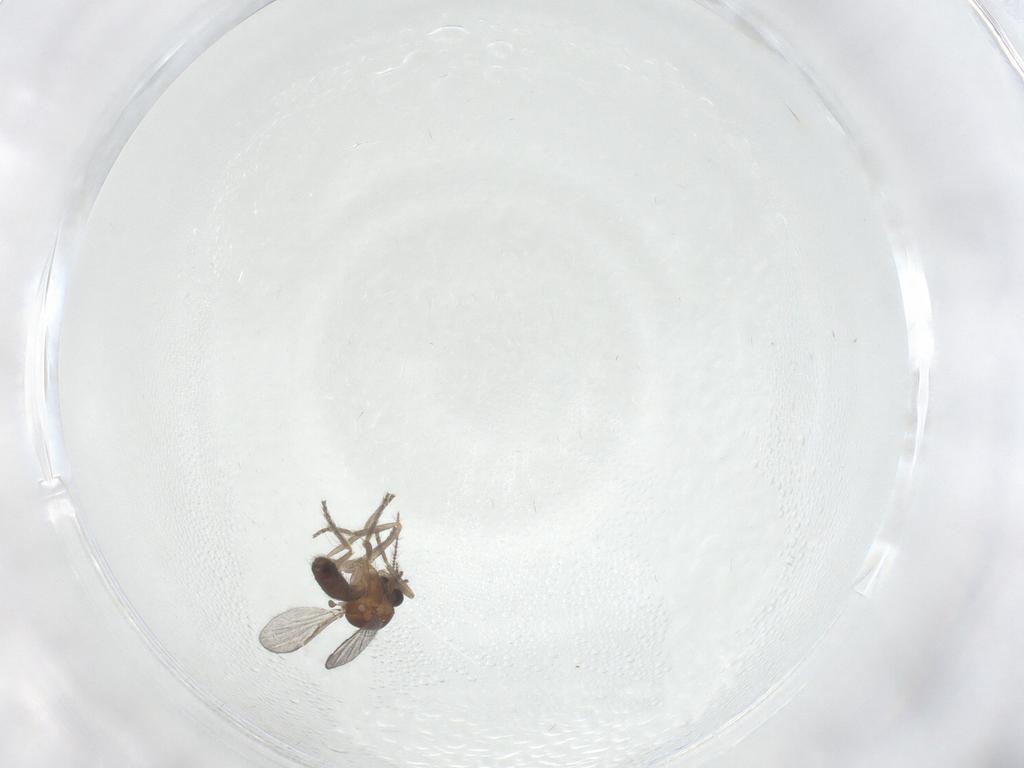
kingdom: Animalia
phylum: Arthropoda
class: Insecta
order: Diptera
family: Ceratopogonidae
